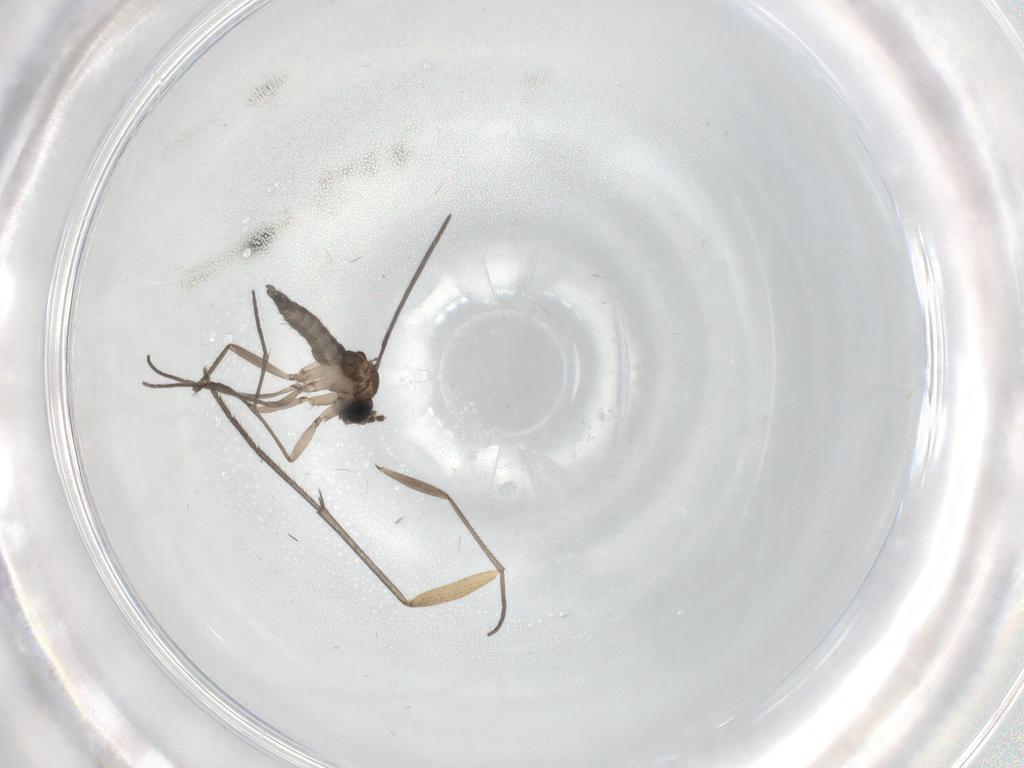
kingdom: Animalia
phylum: Arthropoda
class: Insecta
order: Diptera
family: Sciaridae
